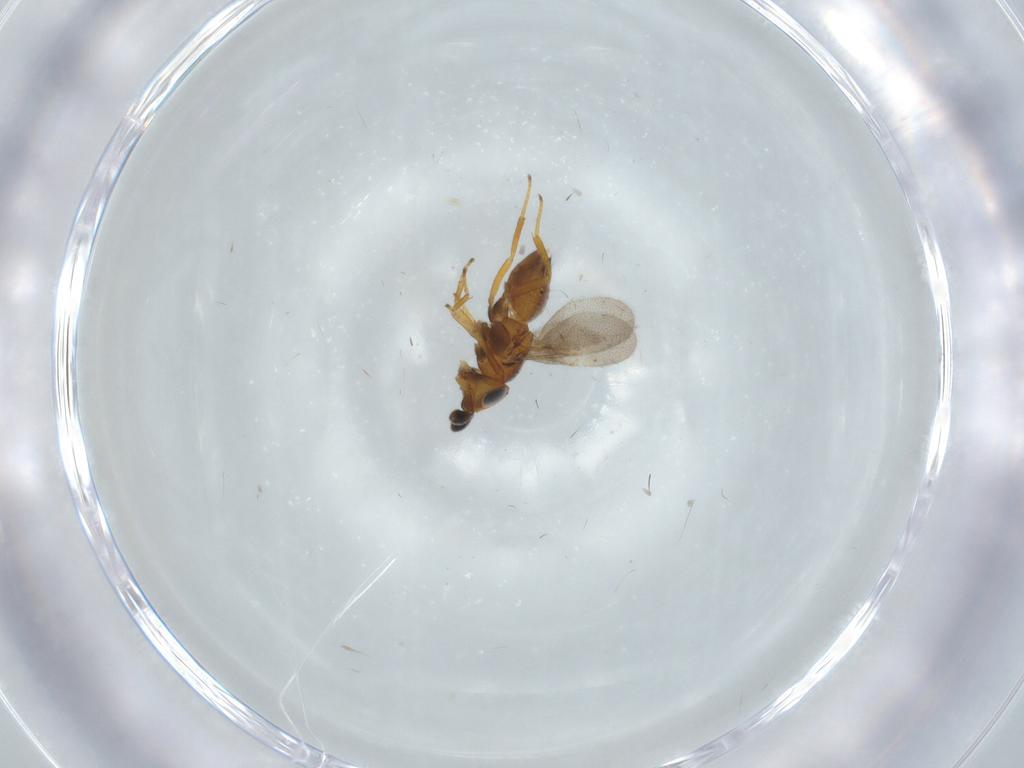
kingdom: Animalia
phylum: Arthropoda
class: Insecta
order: Hymenoptera
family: Encyrtidae
